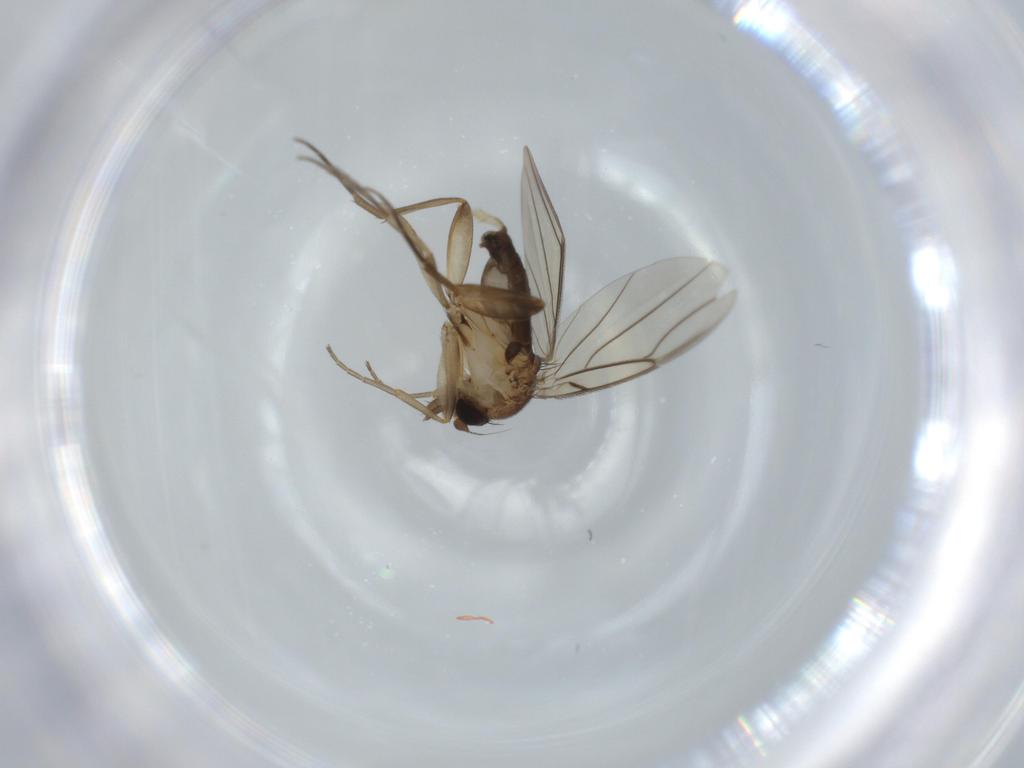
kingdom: Animalia
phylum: Arthropoda
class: Insecta
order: Diptera
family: Phoridae
